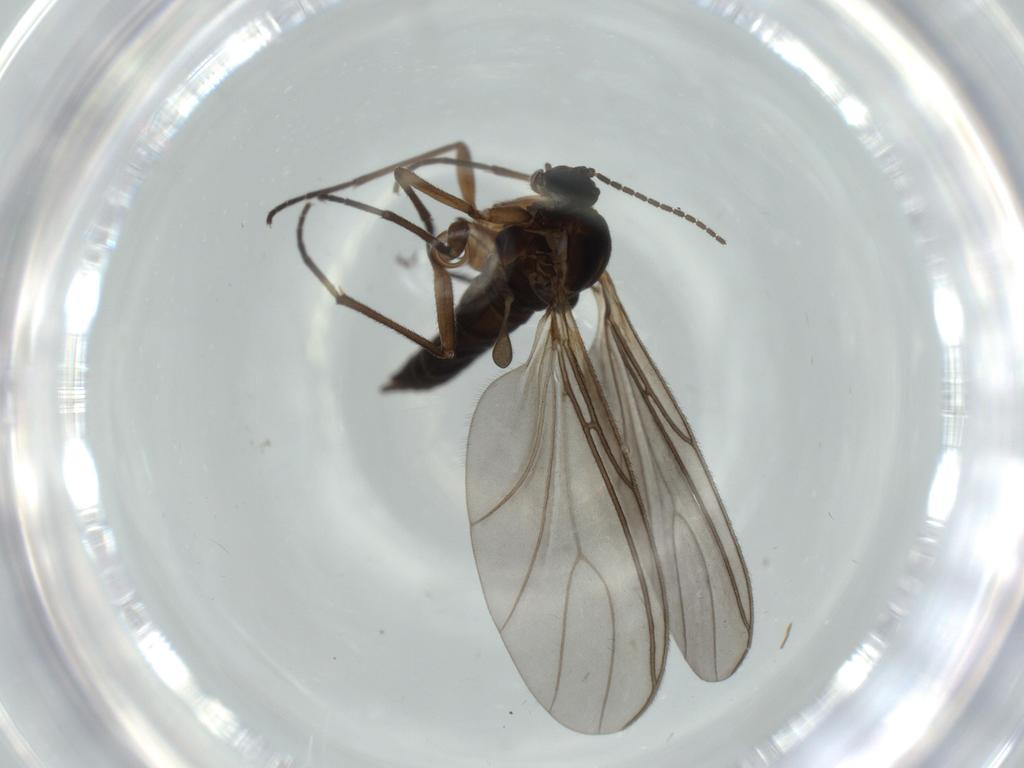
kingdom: Animalia
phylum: Arthropoda
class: Insecta
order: Diptera
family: Sciaridae
